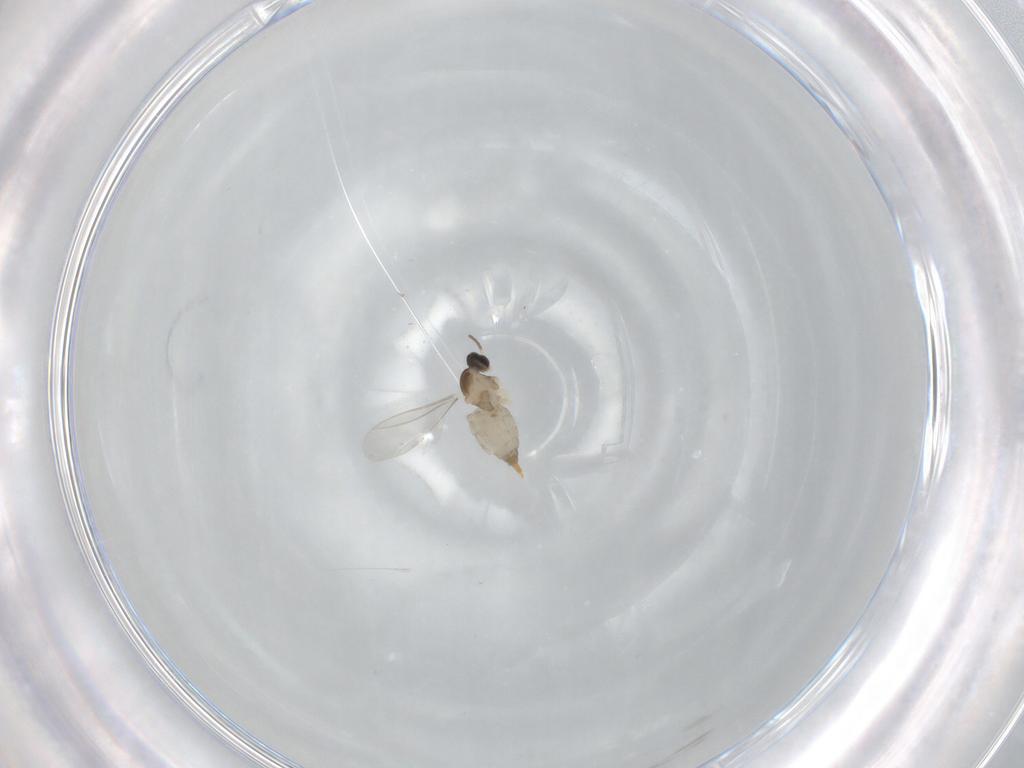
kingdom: Animalia
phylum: Arthropoda
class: Insecta
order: Diptera
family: Cecidomyiidae
